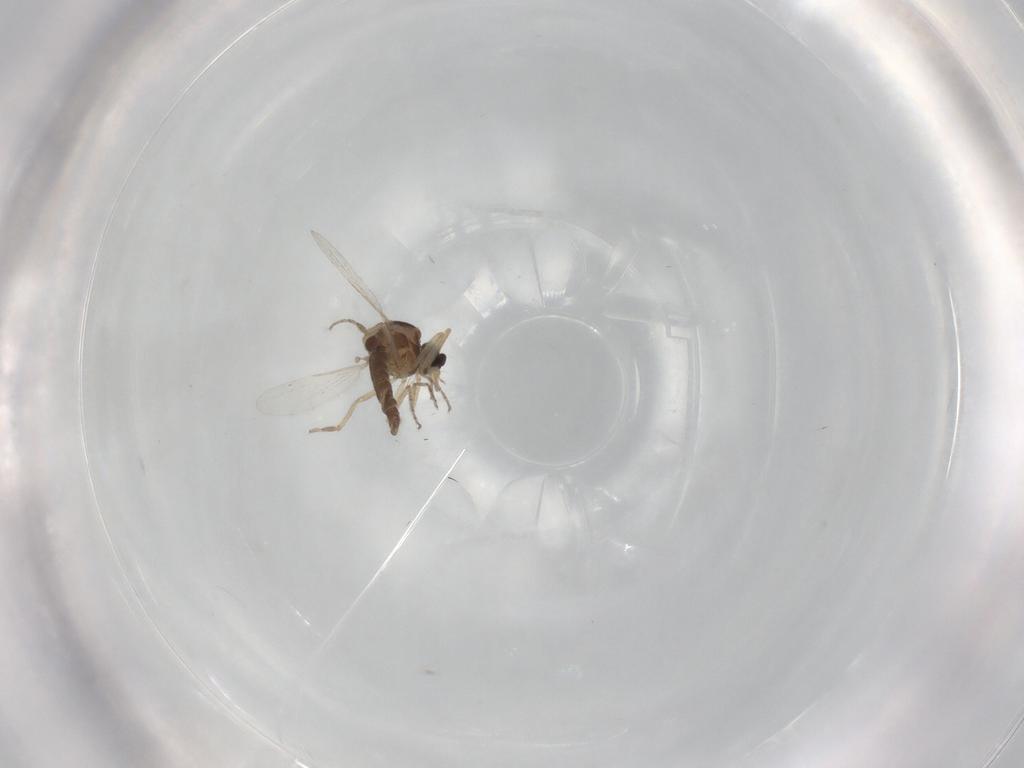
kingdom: Animalia
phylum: Arthropoda
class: Insecta
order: Diptera
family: Ceratopogonidae
